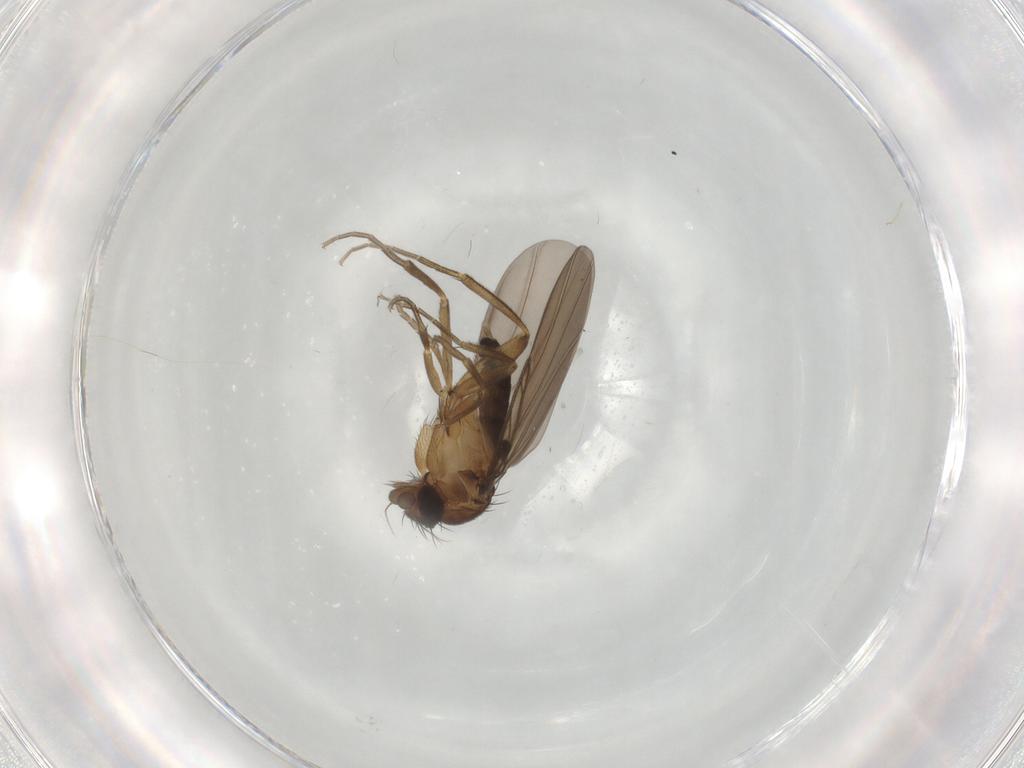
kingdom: Animalia
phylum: Arthropoda
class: Insecta
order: Diptera
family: Phoridae
